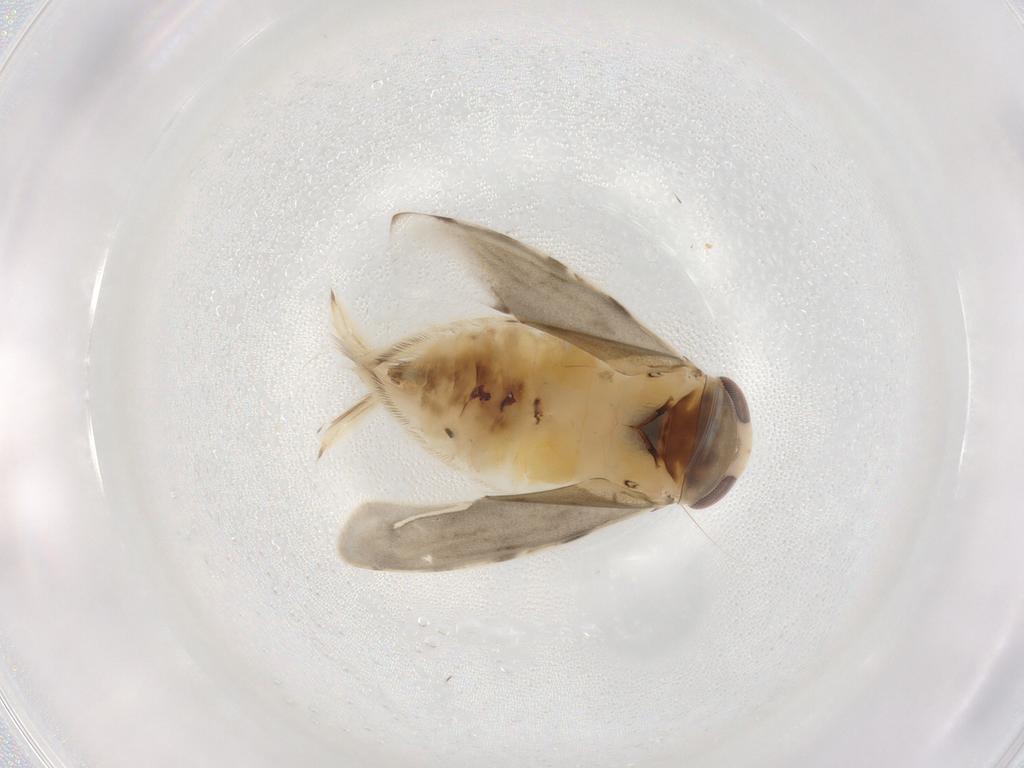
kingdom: Animalia
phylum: Arthropoda
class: Insecta
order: Hemiptera
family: Corixidae
